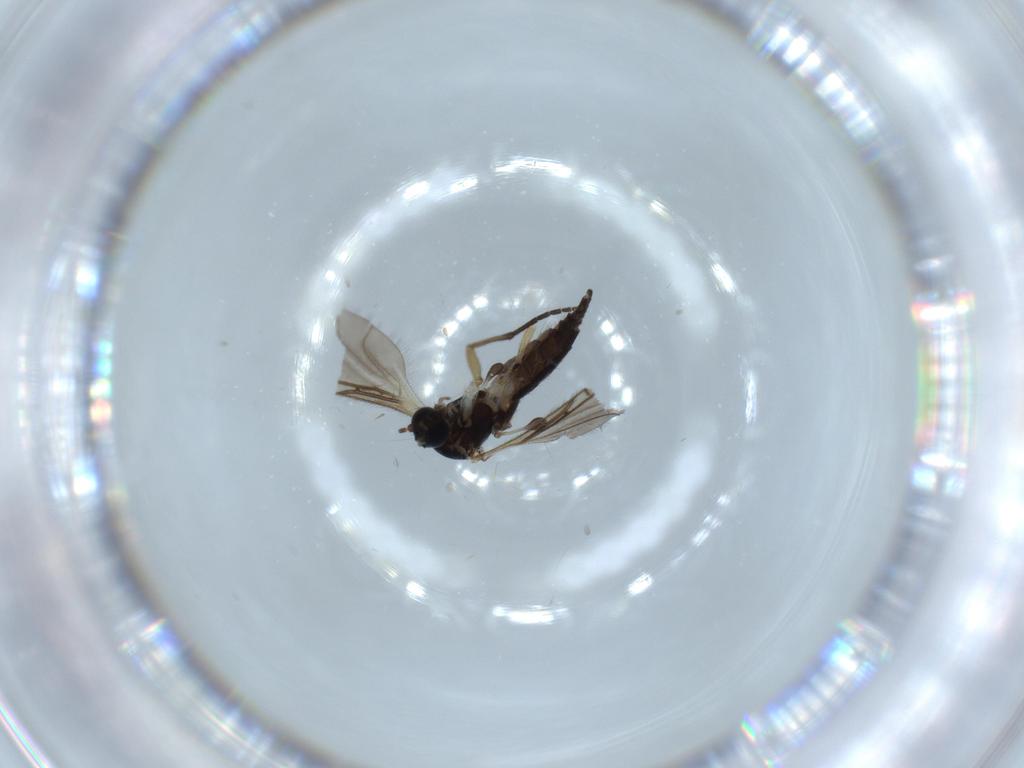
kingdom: Animalia
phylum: Arthropoda
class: Insecta
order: Diptera
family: Sciaridae
